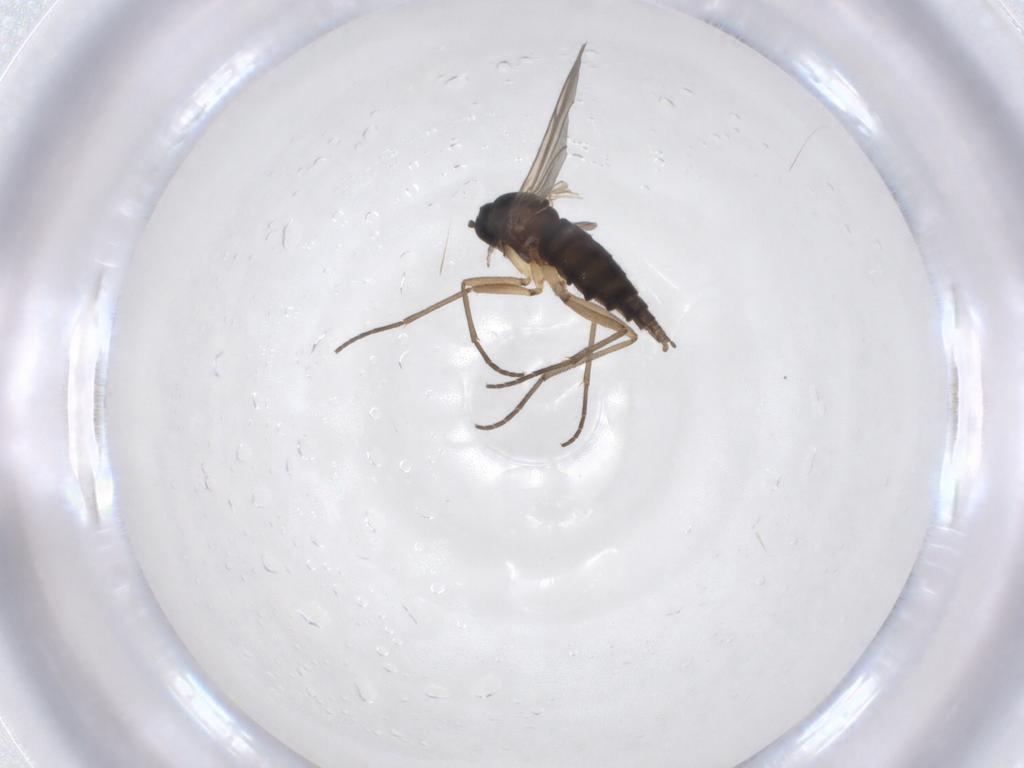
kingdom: Animalia
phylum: Arthropoda
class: Insecta
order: Diptera
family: Sciaridae
